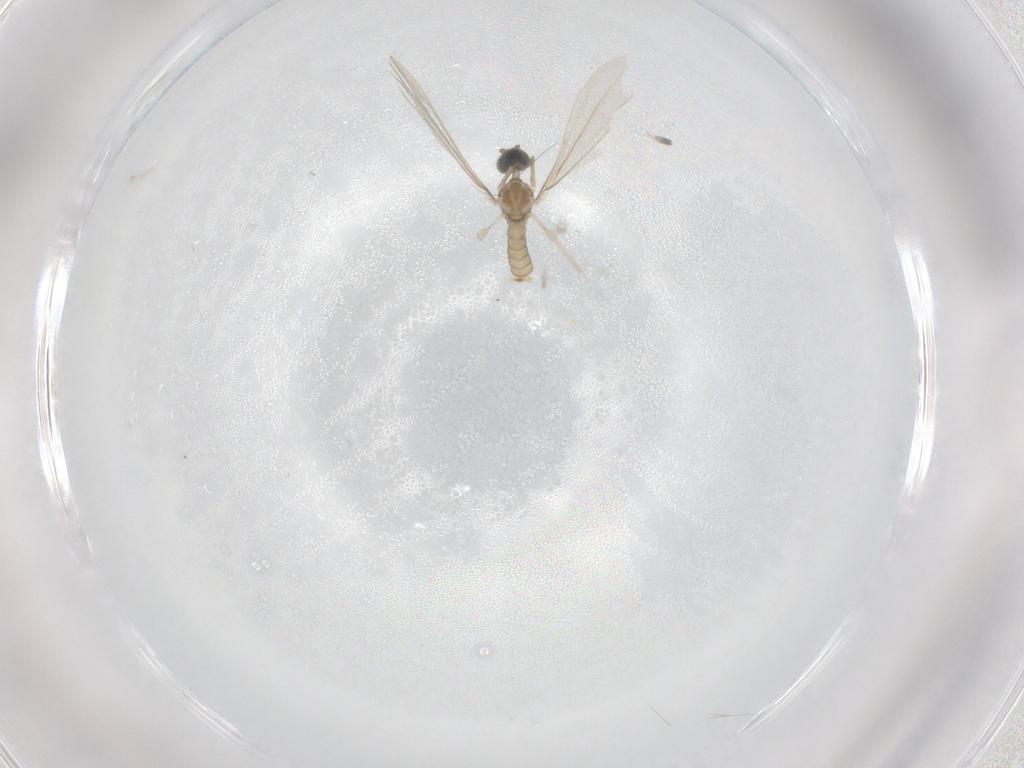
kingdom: Animalia
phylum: Arthropoda
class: Insecta
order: Diptera
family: Cecidomyiidae
